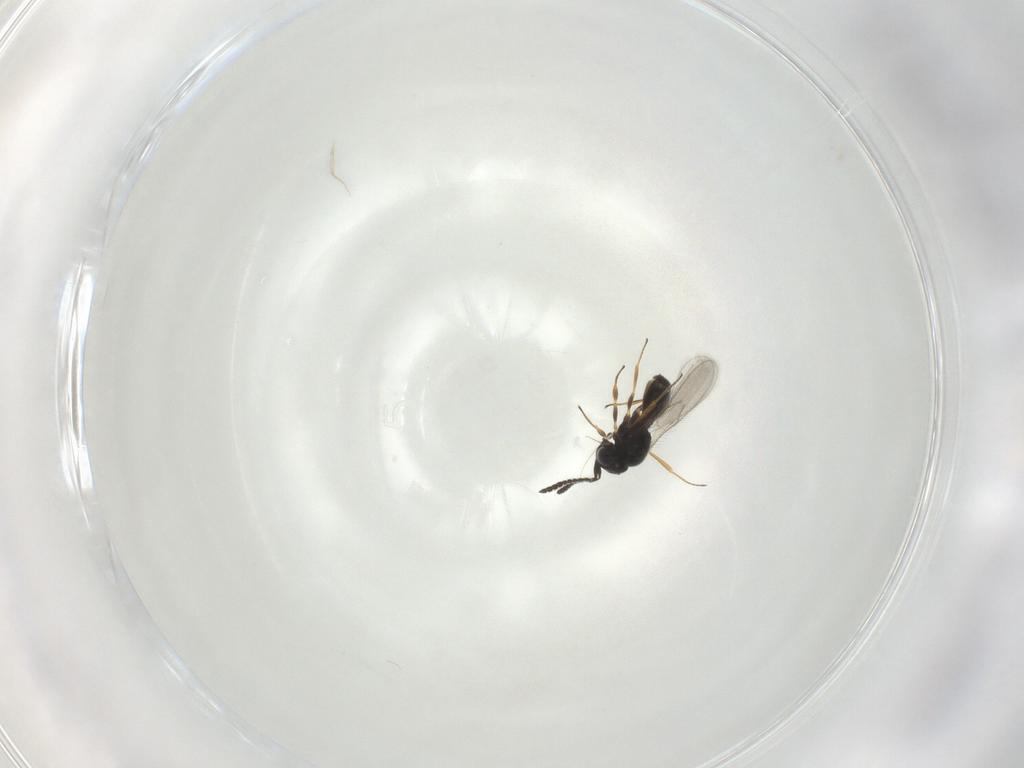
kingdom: Animalia
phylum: Arthropoda
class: Insecta
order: Hymenoptera
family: Scelionidae
